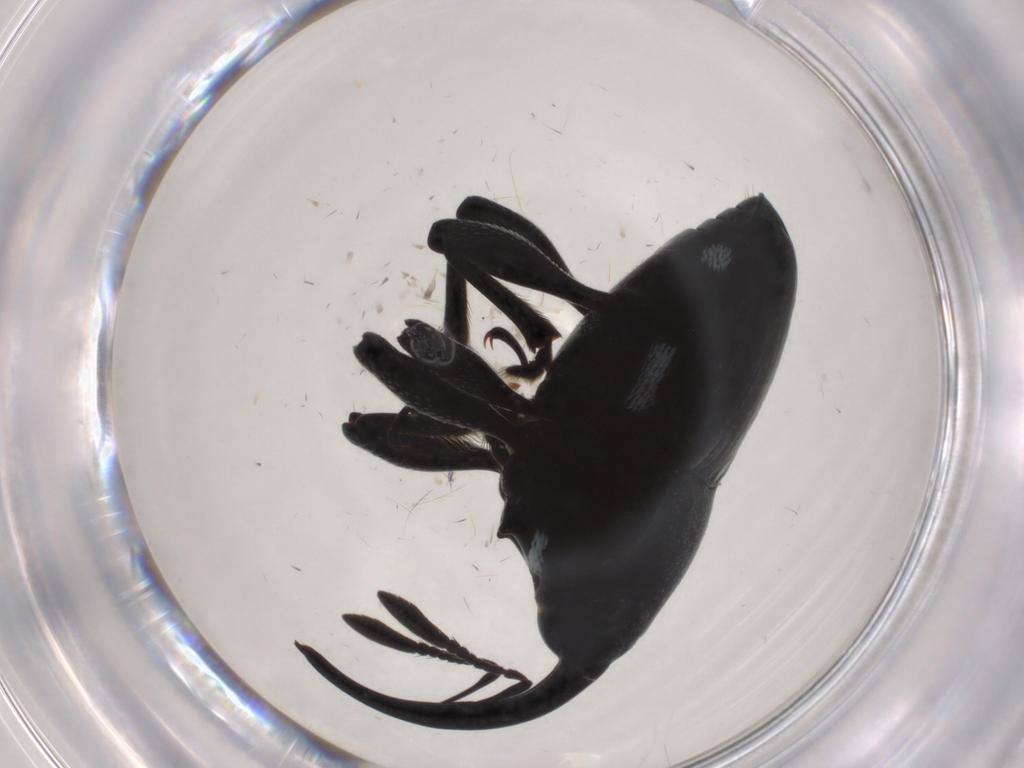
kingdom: Animalia
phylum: Arthropoda
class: Insecta
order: Coleoptera
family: Curculionidae
